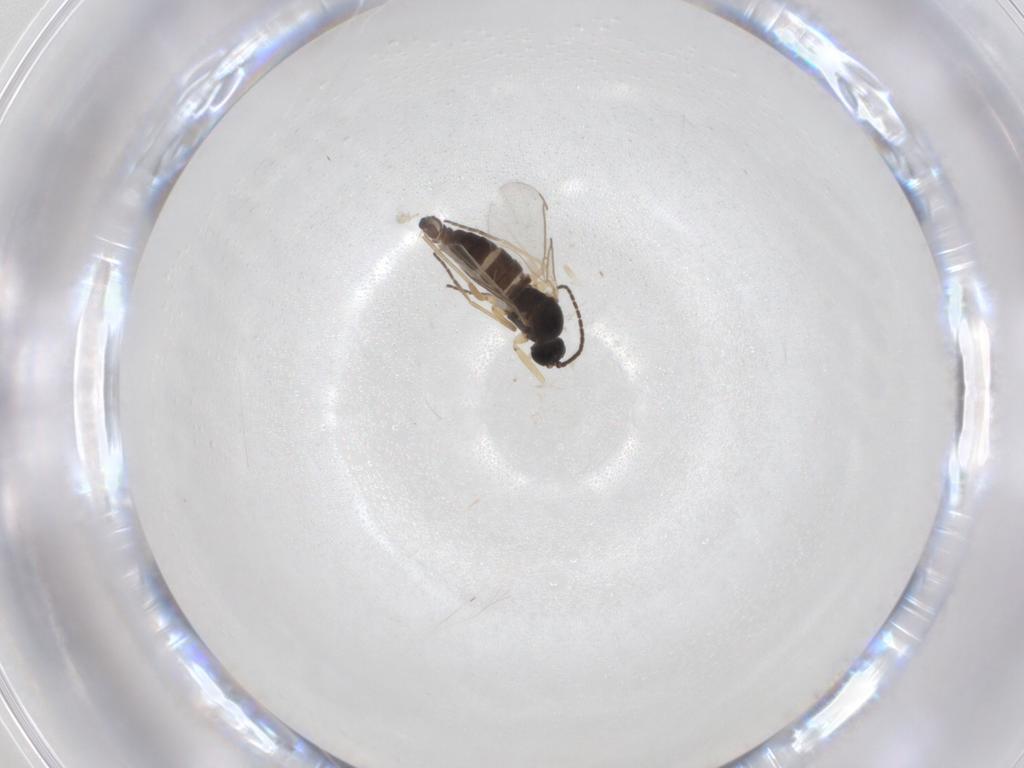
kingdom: Animalia
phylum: Arthropoda
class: Insecta
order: Diptera
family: Sciaridae
